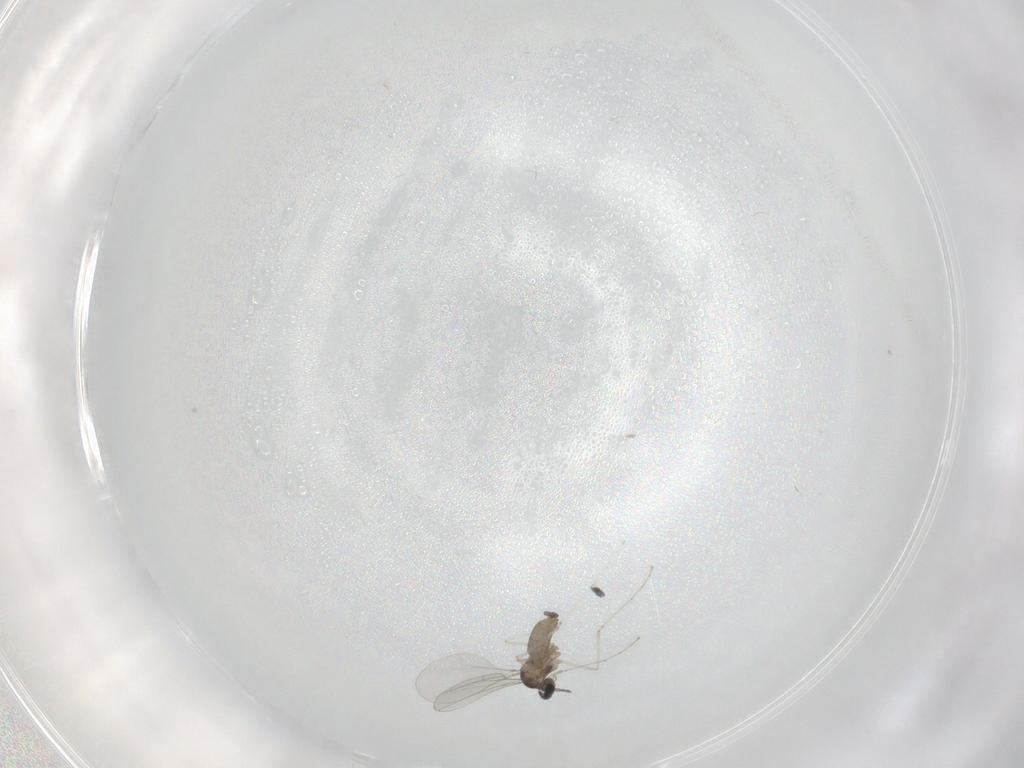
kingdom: Animalia
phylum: Arthropoda
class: Insecta
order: Diptera
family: Cecidomyiidae
